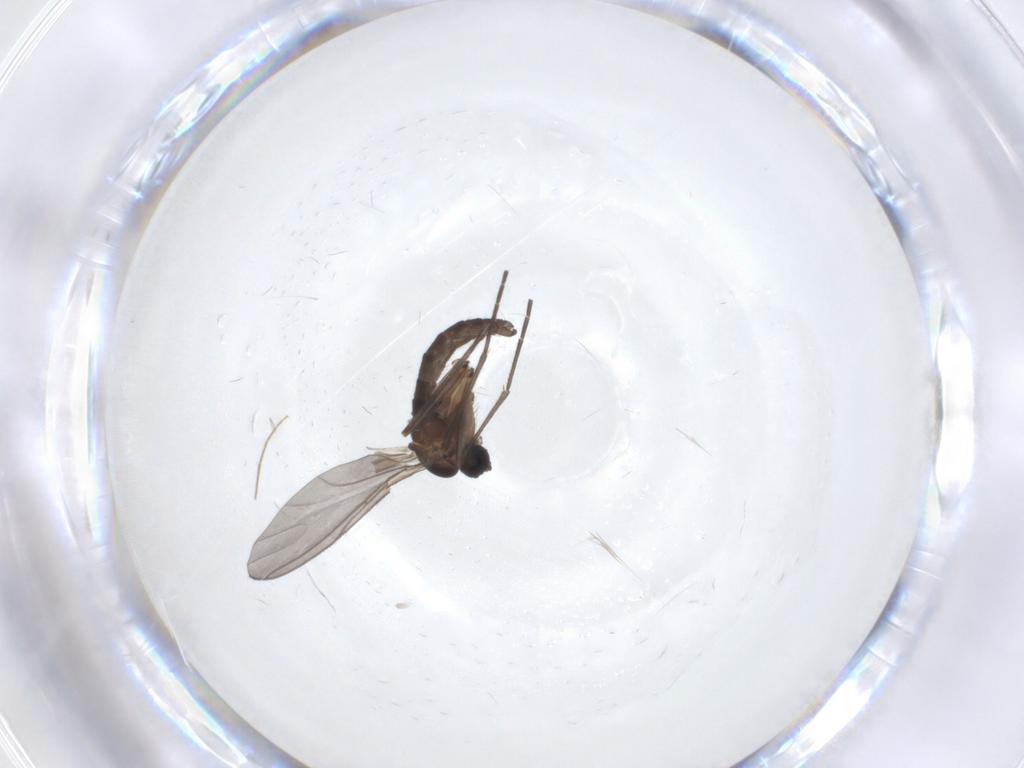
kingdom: Animalia
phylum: Arthropoda
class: Insecta
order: Diptera
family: Sciaridae
